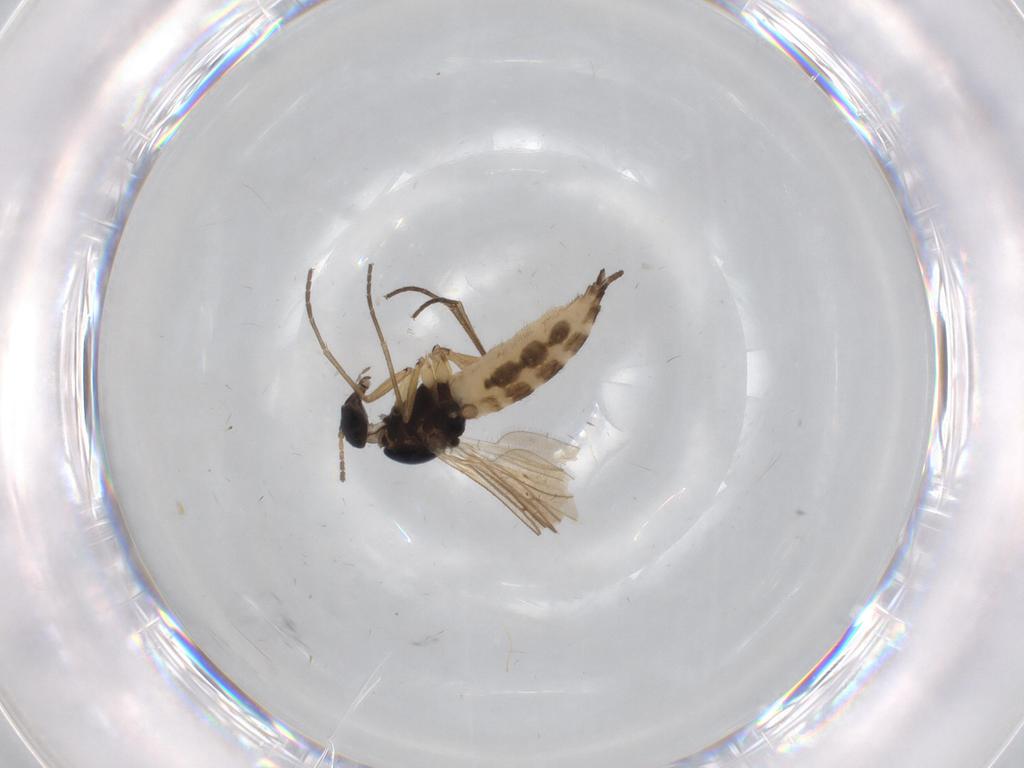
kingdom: Animalia
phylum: Arthropoda
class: Insecta
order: Diptera
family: Sciaridae
